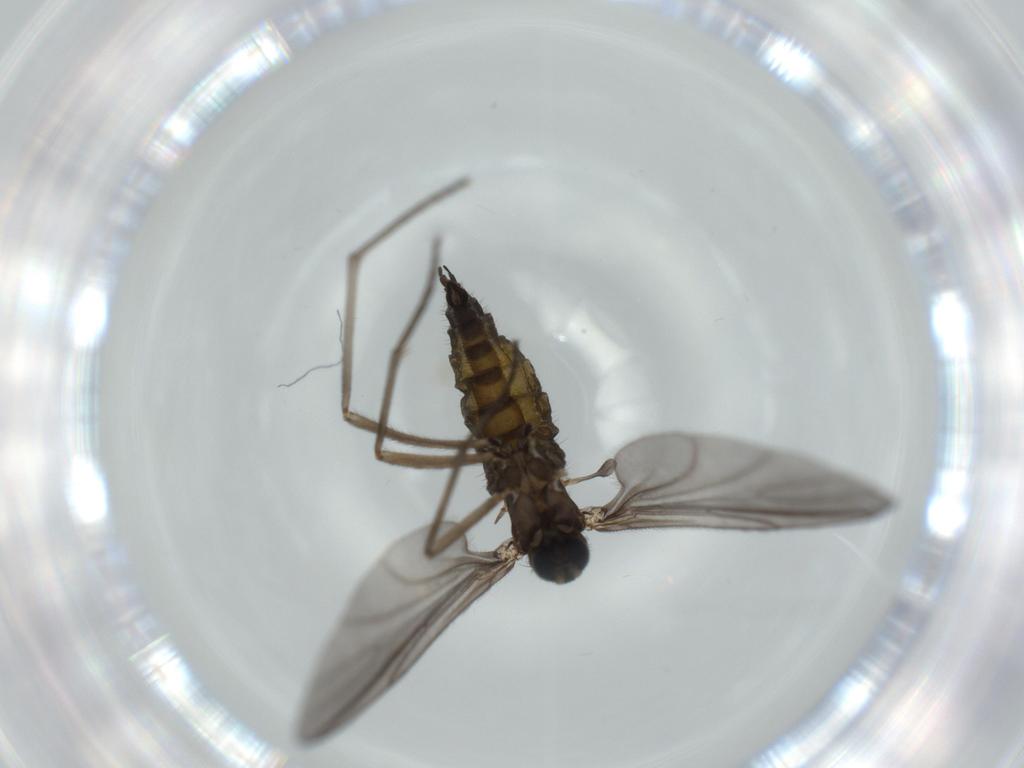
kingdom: Animalia
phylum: Arthropoda
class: Insecta
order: Diptera
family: Sciaridae
